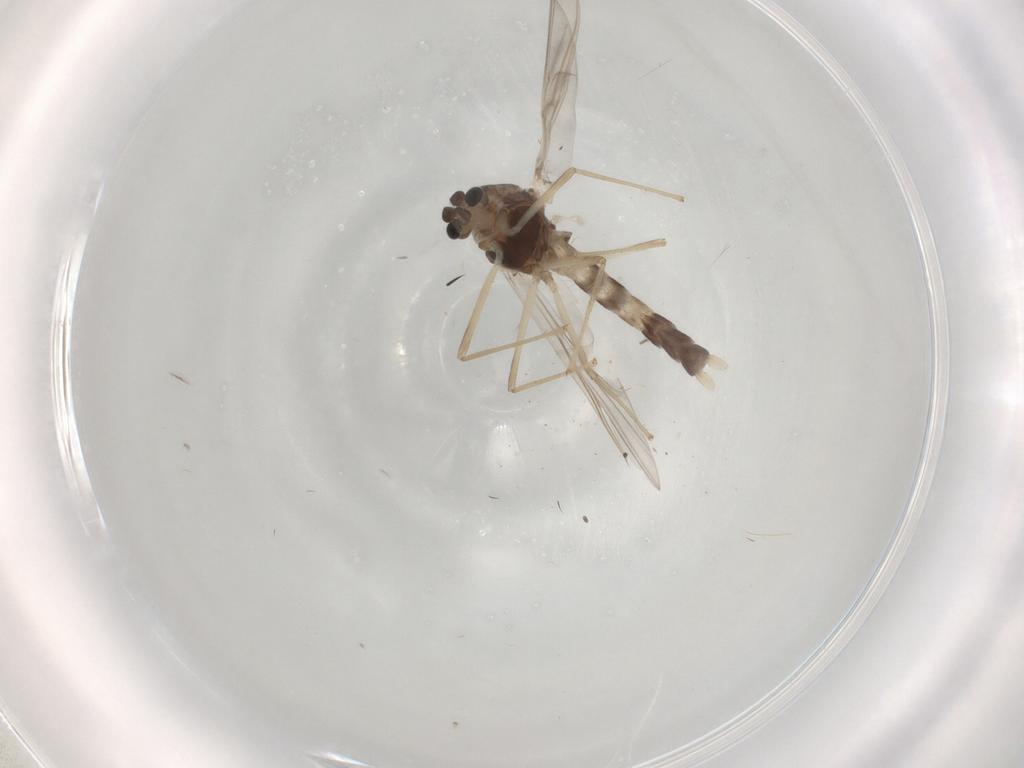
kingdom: Animalia
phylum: Arthropoda
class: Insecta
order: Diptera
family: Chironomidae
